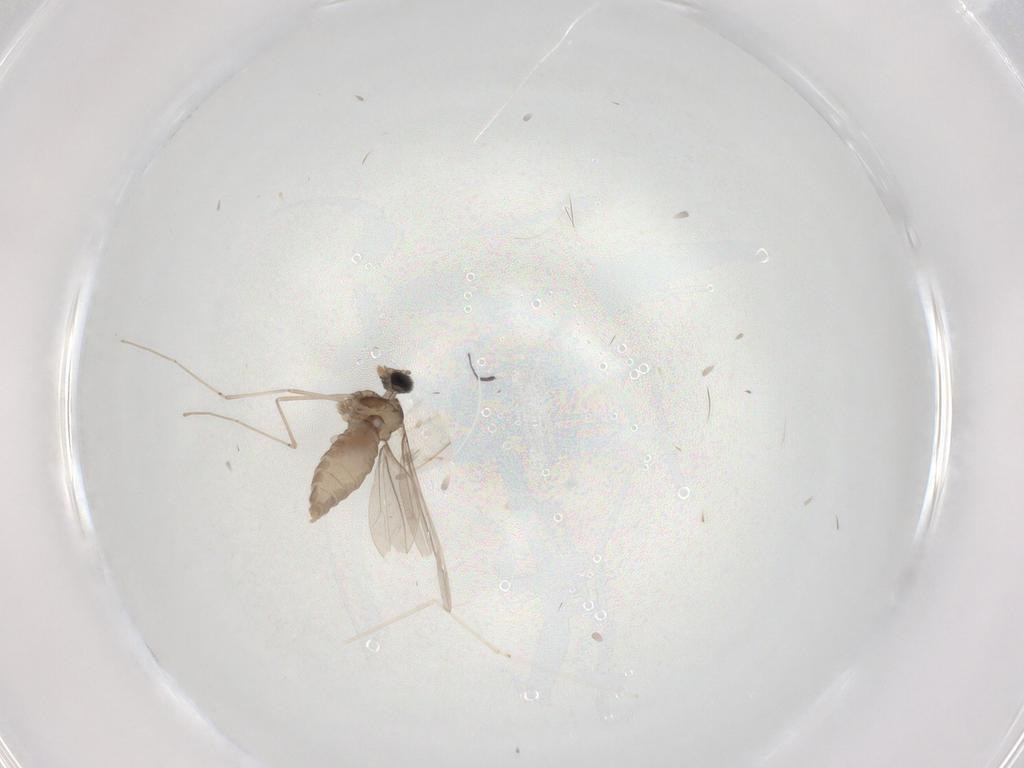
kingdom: Animalia
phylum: Arthropoda
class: Insecta
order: Diptera
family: Cecidomyiidae
